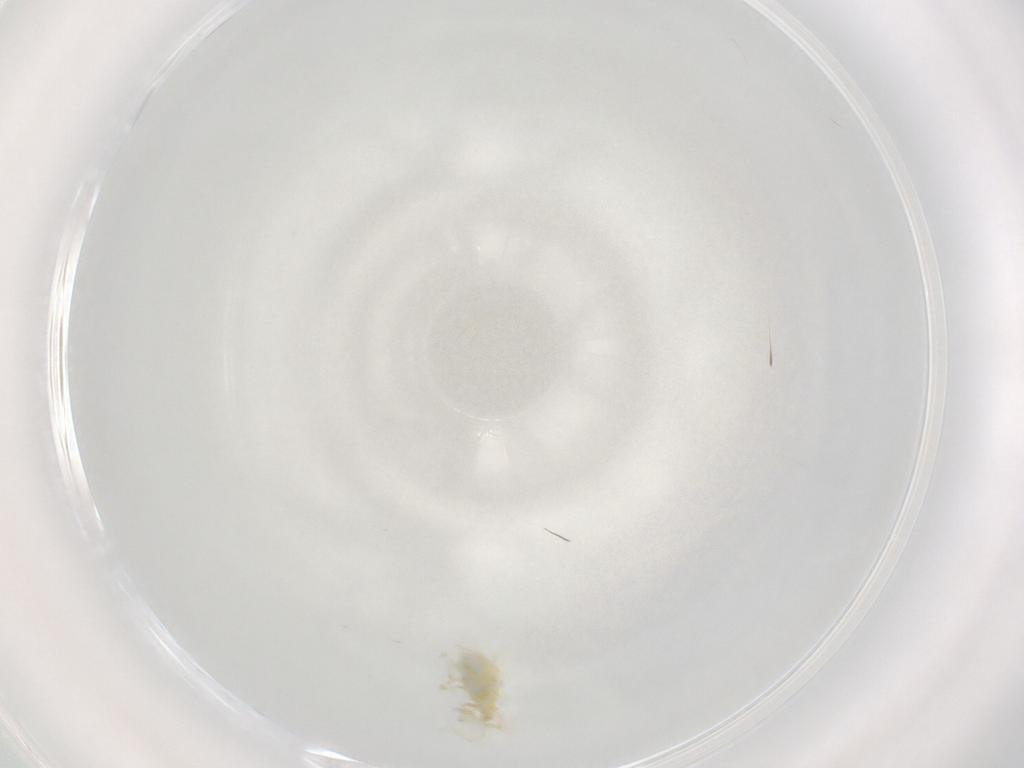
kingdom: Animalia
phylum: Arthropoda
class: Arachnida
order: Trombidiformes
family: Erythraeidae
